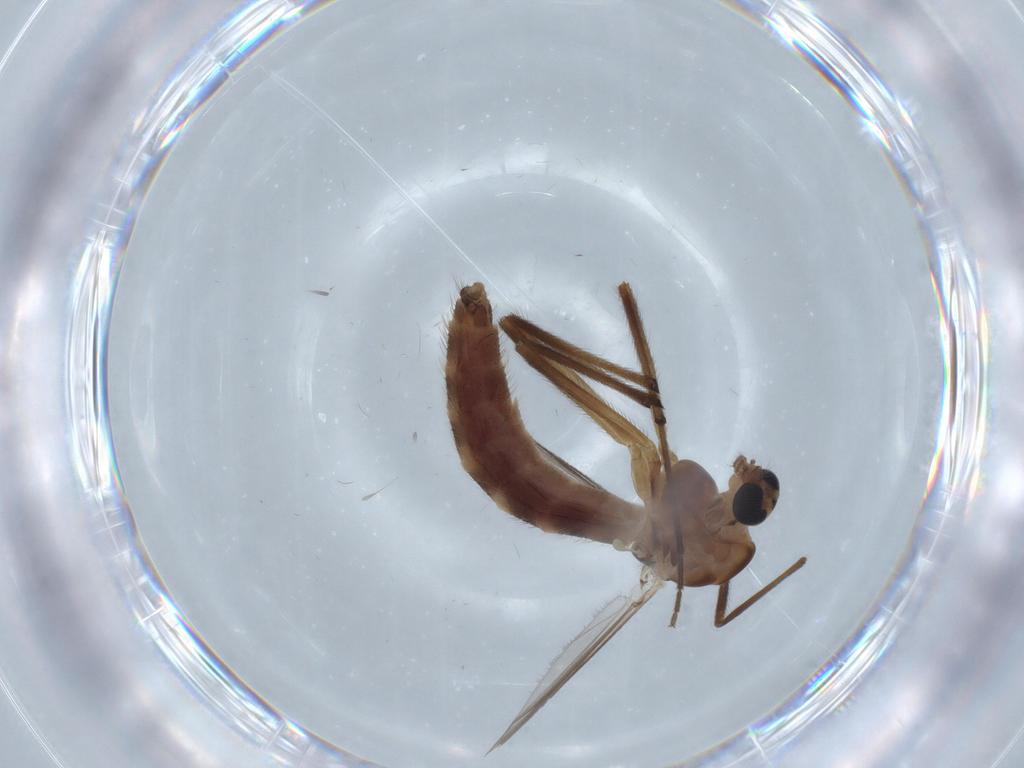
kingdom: Animalia
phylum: Arthropoda
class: Insecta
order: Diptera
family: Chironomidae
